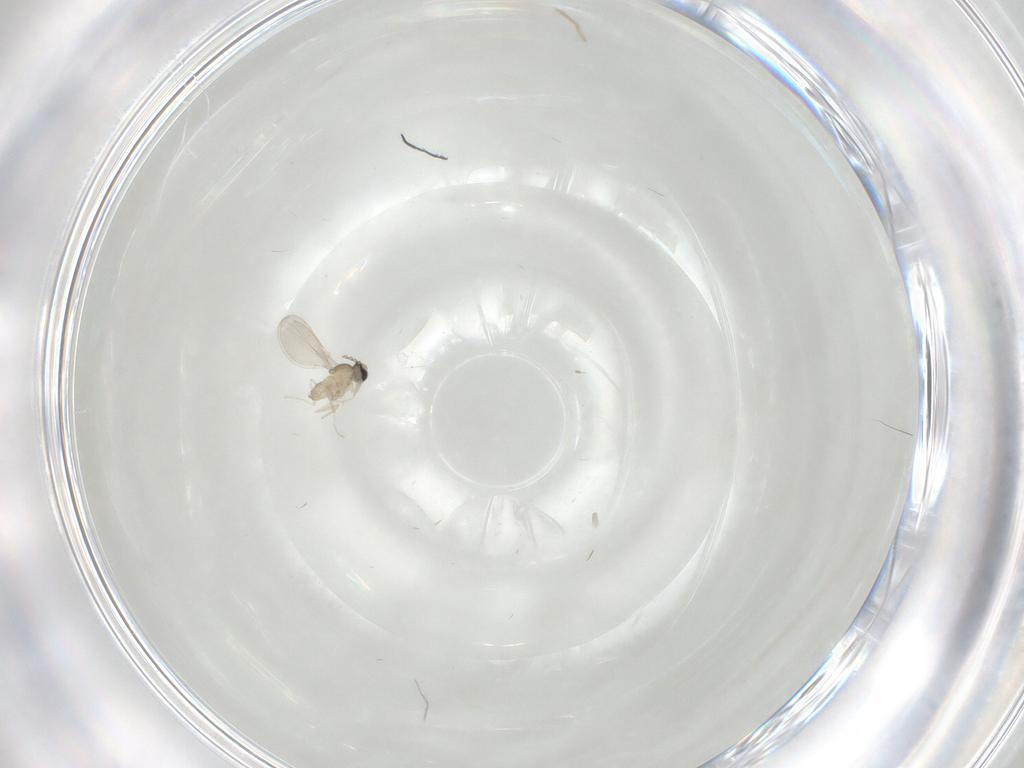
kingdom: Animalia
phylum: Arthropoda
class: Insecta
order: Diptera
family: Cecidomyiidae
